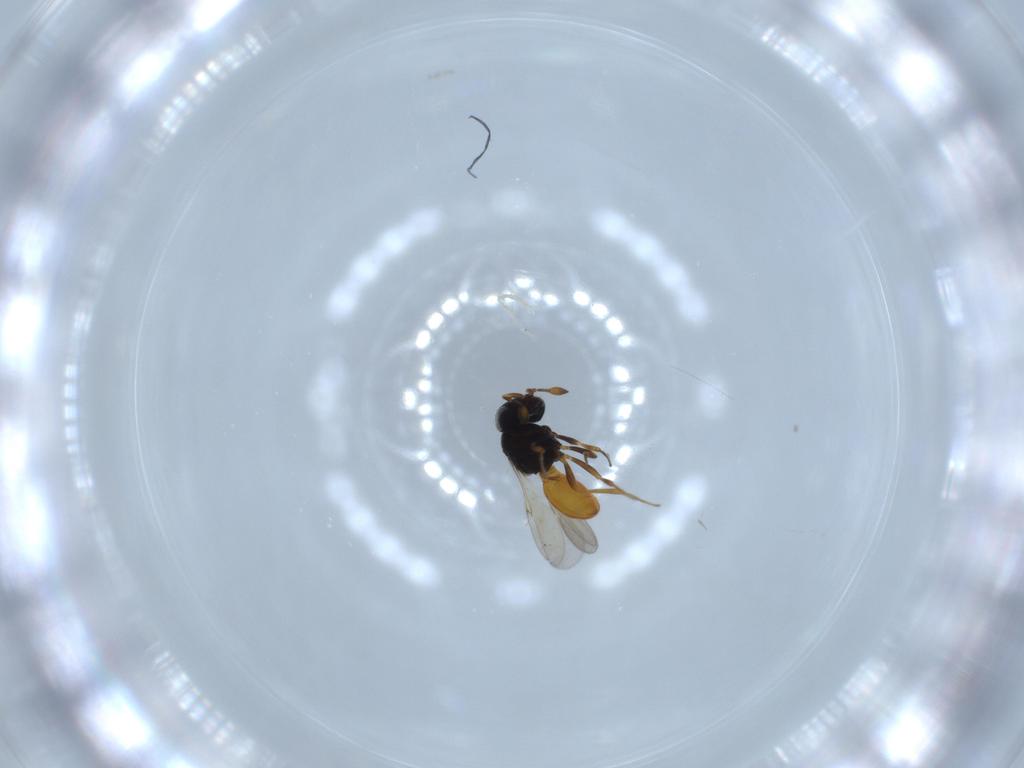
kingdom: Animalia
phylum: Arthropoda
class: Insecta
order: Hymenoptera
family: Scelionidae
